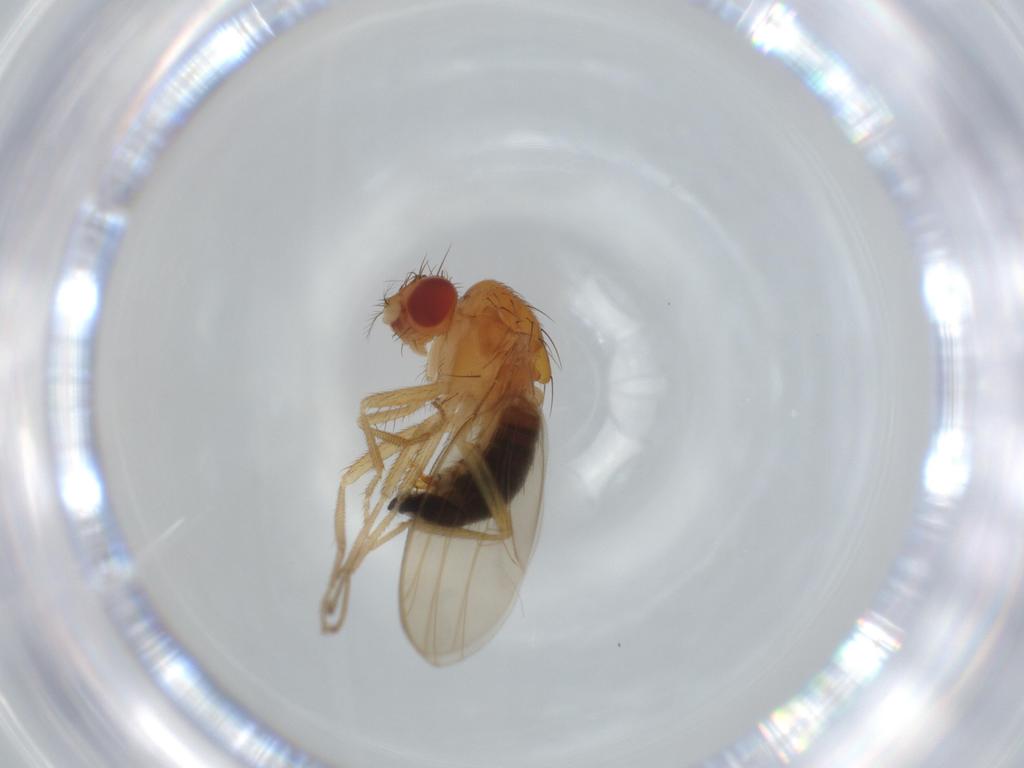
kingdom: Animalia
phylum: Arthropoda
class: Insecta
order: Diptera
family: Drosophilidae
